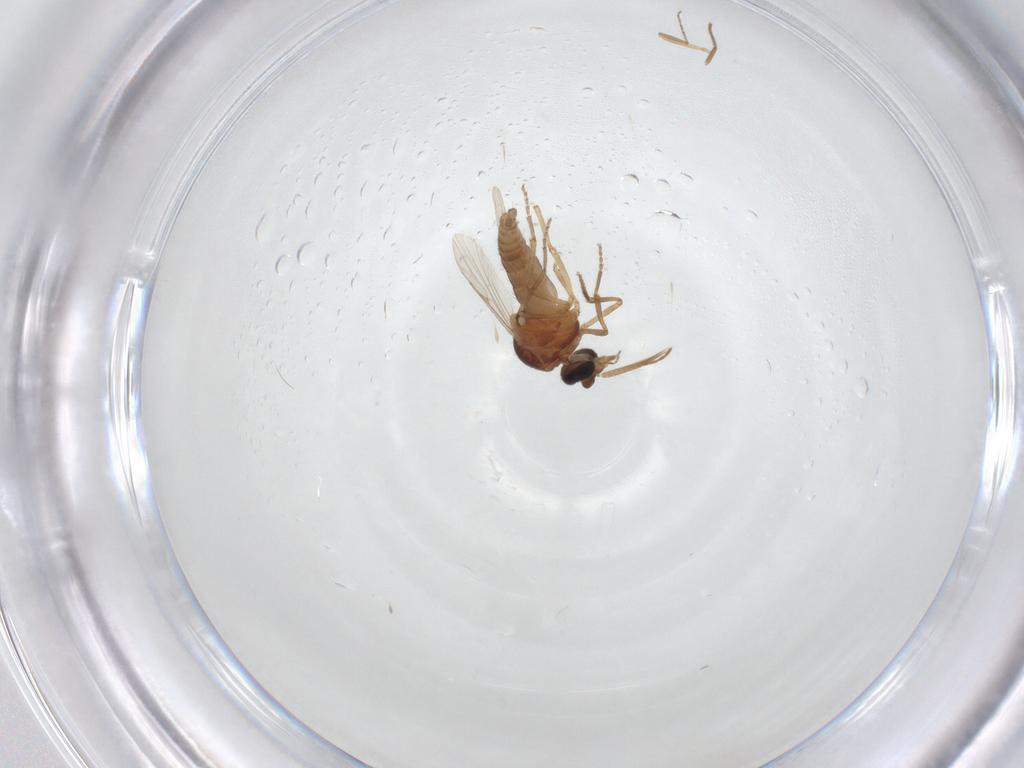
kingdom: Animalia
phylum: Arthropoda
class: Insecta
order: Diptera
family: Ceratopogonidae
